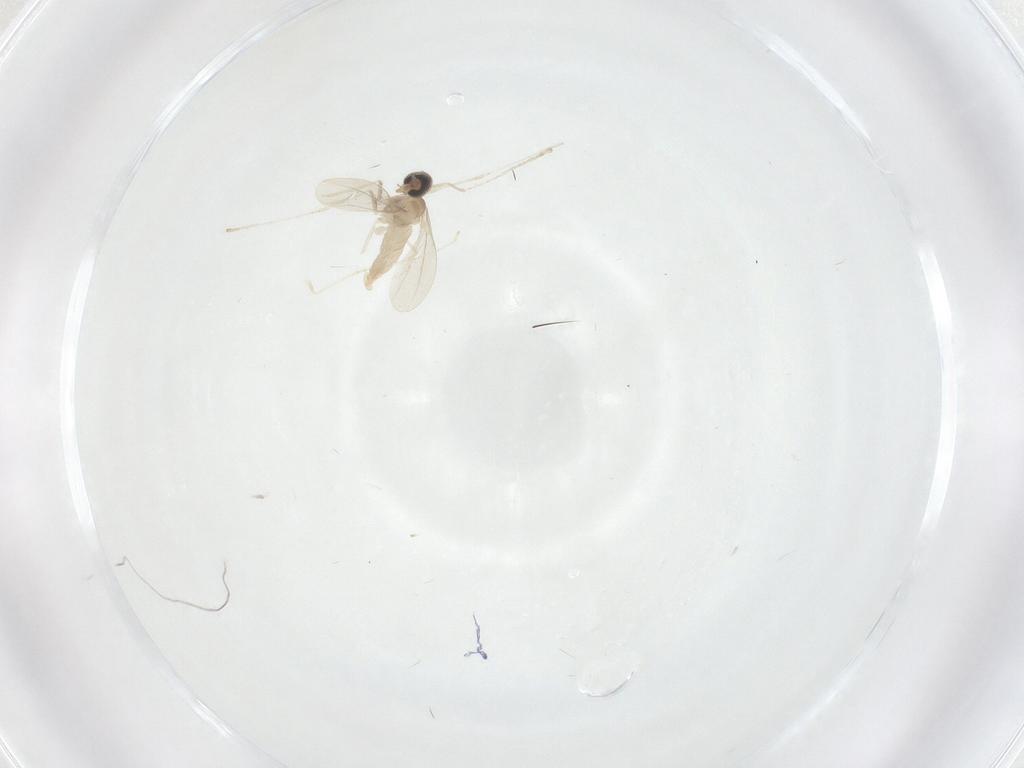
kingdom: Animalia
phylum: Arthropoda
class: Insecta
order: Diptera
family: Cecidomyiidae
